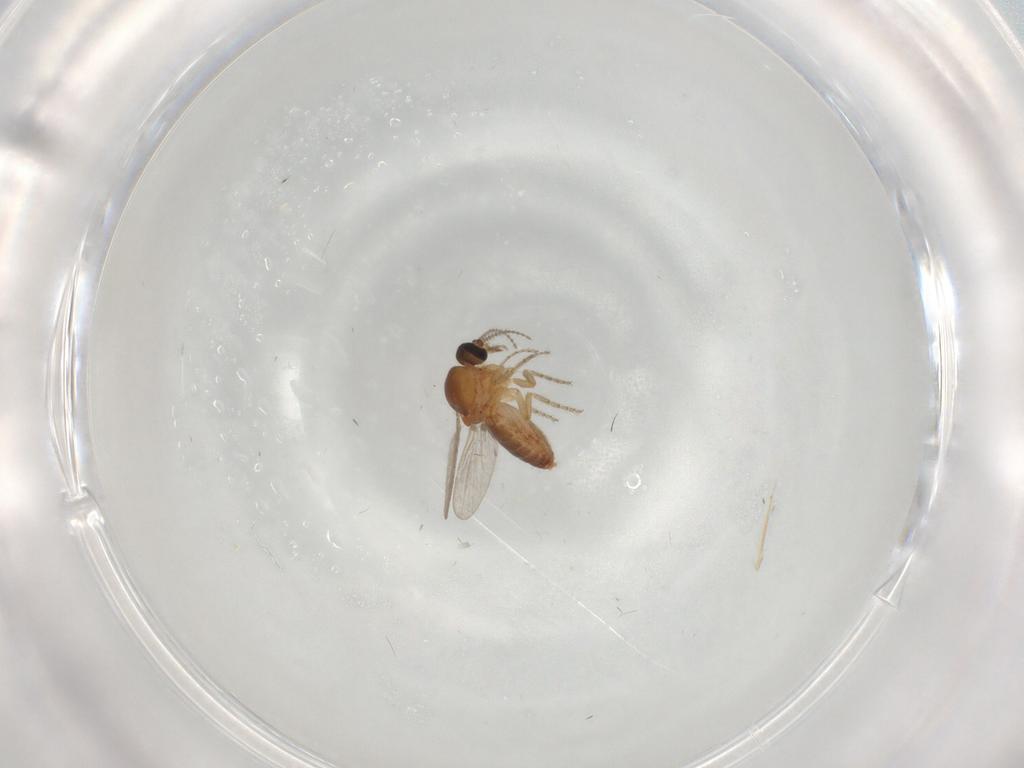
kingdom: Animalia
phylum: Arthropoda
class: Insecta
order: Diptera
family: Ceratopogonidae
